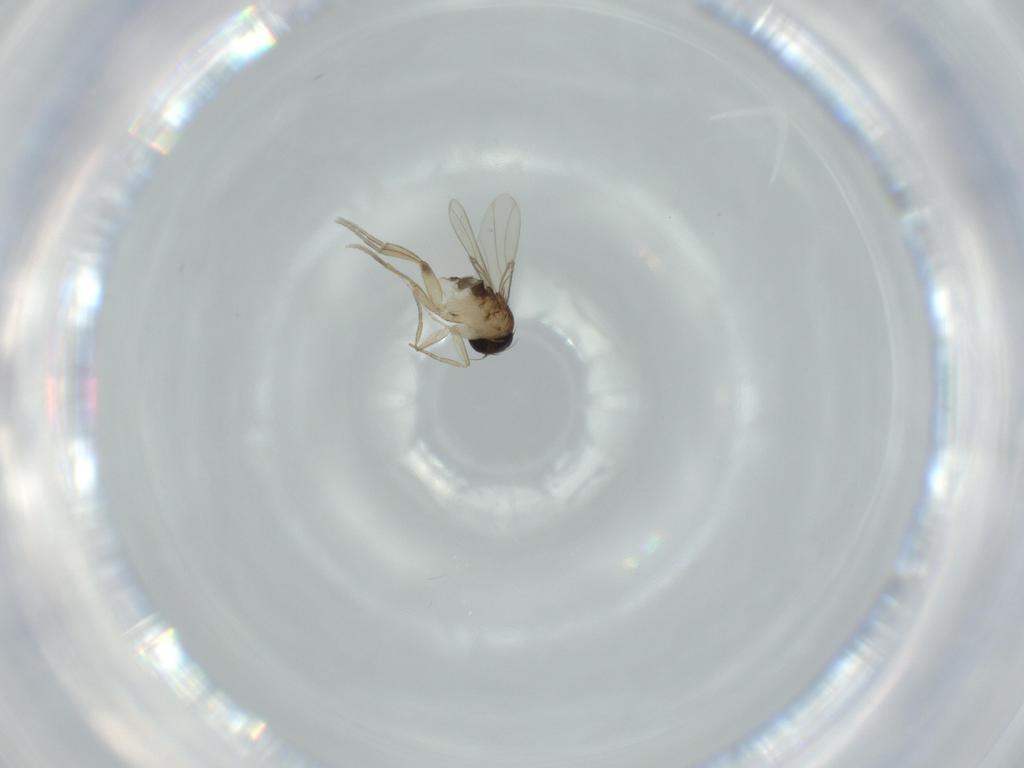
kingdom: Animalia
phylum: Arthropoda
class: Insecta
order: Diptera
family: Phoridae
